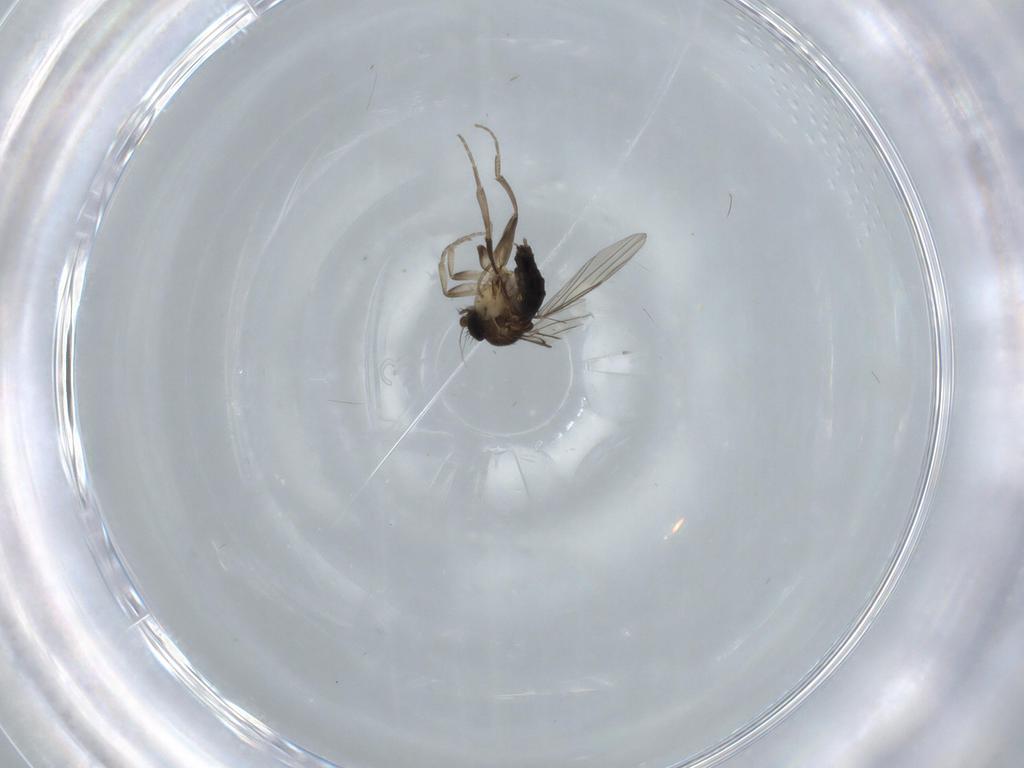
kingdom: Animalia
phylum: Arthropoda
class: Insecta
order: Diptera
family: Phoridae
